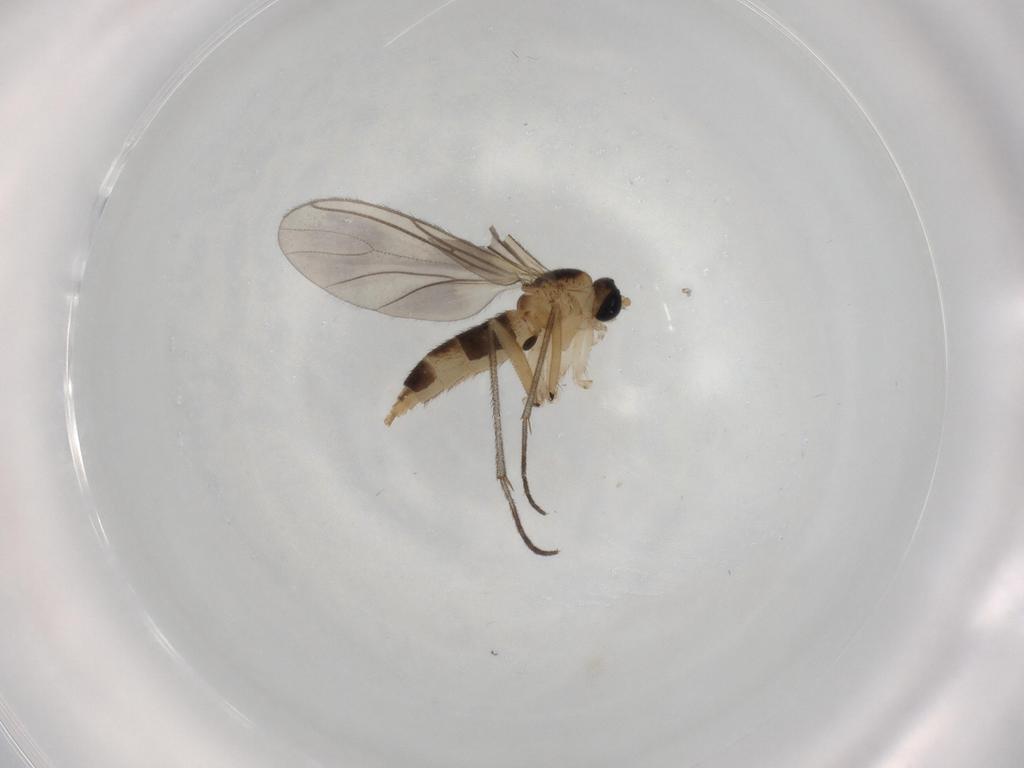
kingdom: Animalia
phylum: Arthropoda
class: Insecta
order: Diptera
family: Sciaridae
